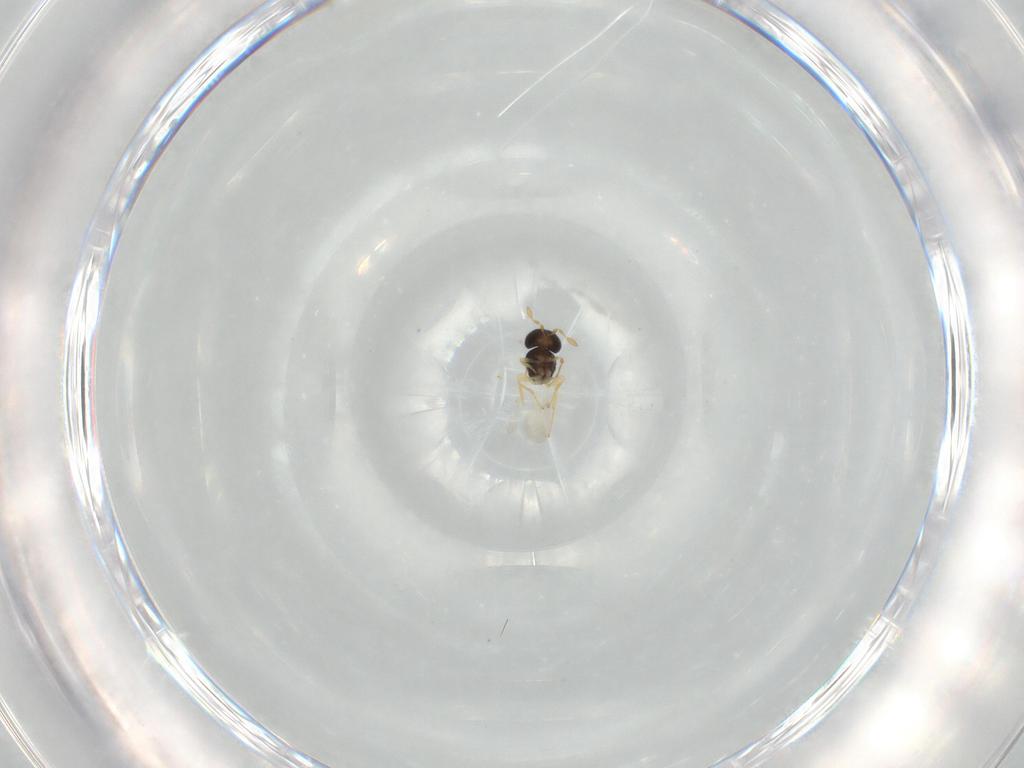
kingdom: Animalia
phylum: Arthropoda
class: Insecta
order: Hymenoptera
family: Scelionidae
